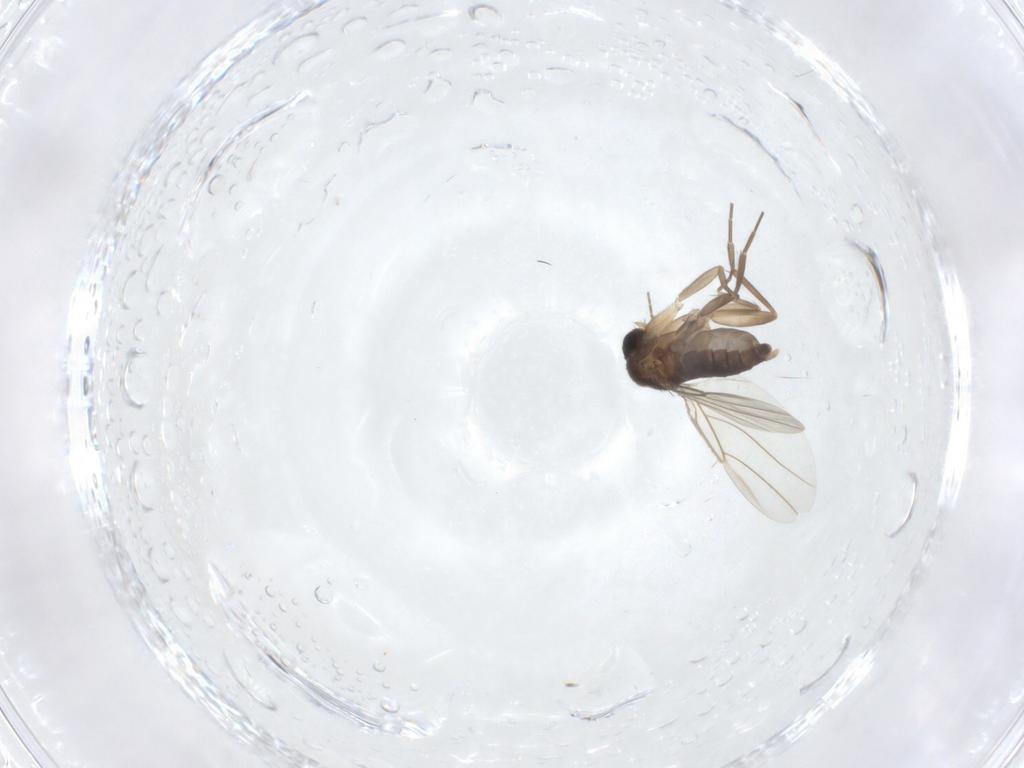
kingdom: Animalia
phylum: Arthropoda
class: Insecta
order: Diptera
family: Phoridae
